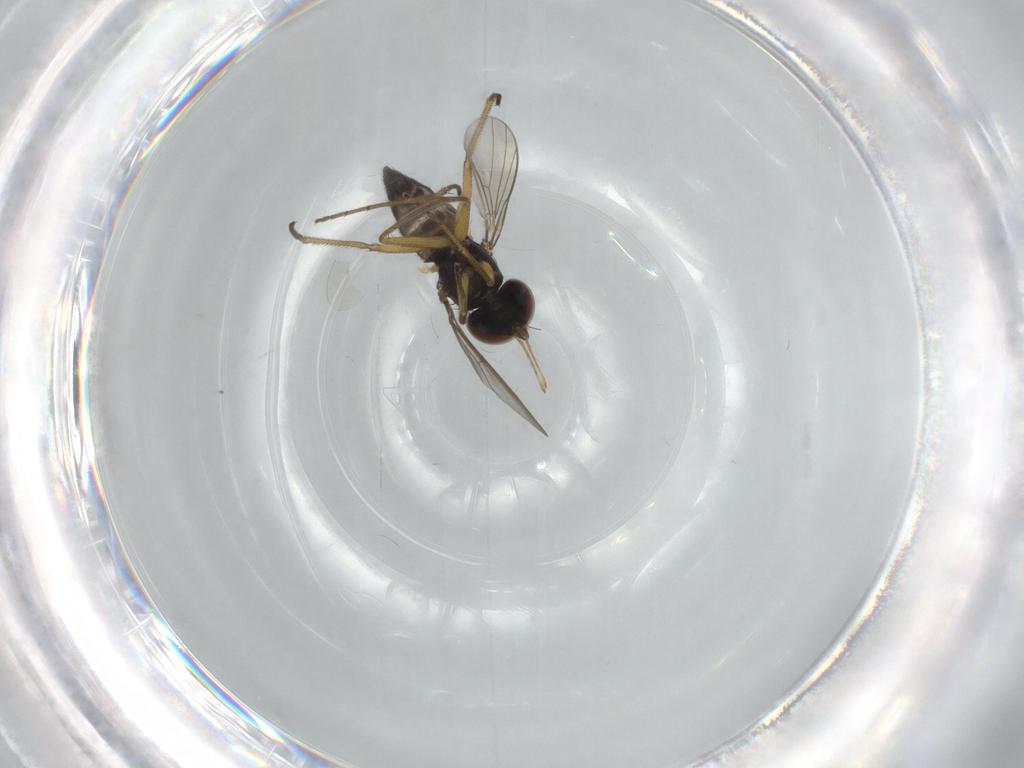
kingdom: Animalia
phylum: Arthropoda
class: Insecta
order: Diptera
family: Dolichopodidae
